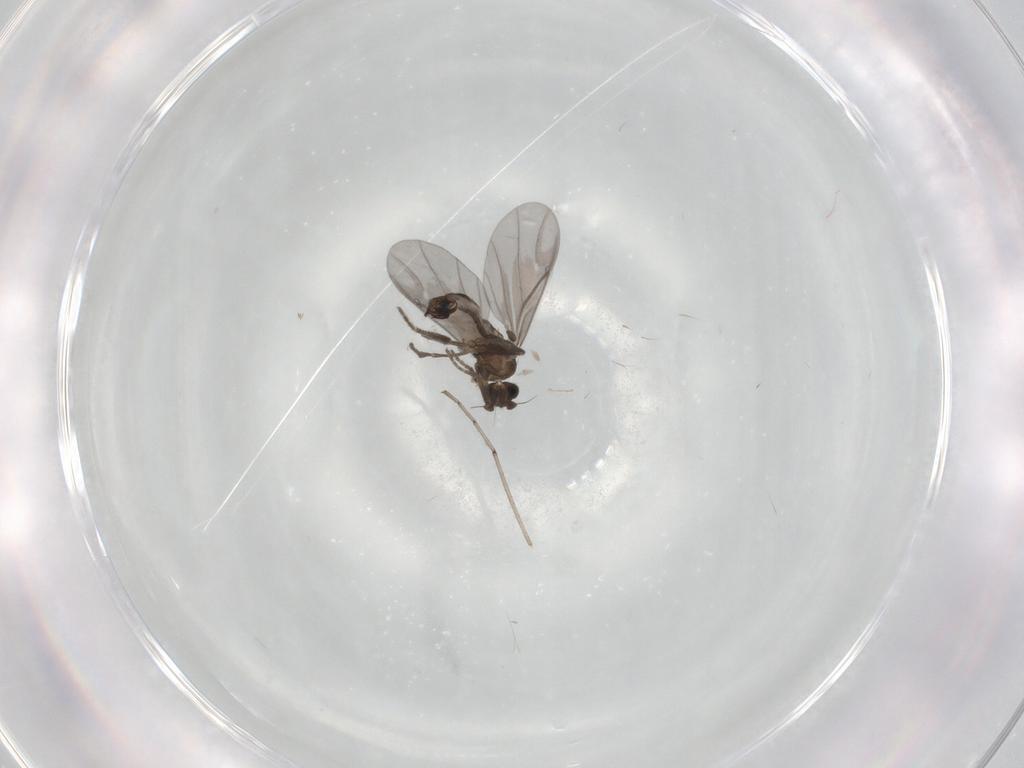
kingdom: Animalia
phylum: Arthropoda
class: Insecta
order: Diptera
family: Phoridae
